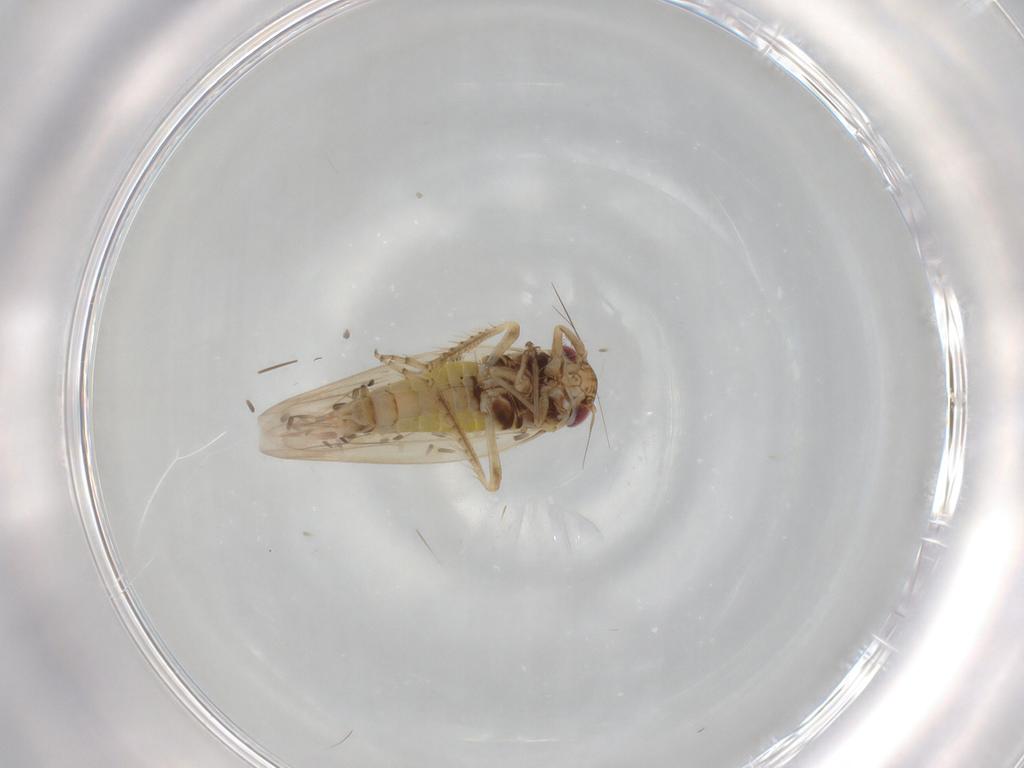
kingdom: Animalia
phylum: Arthropoda
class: Insecta
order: Hemiptera
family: Cicadellidae
